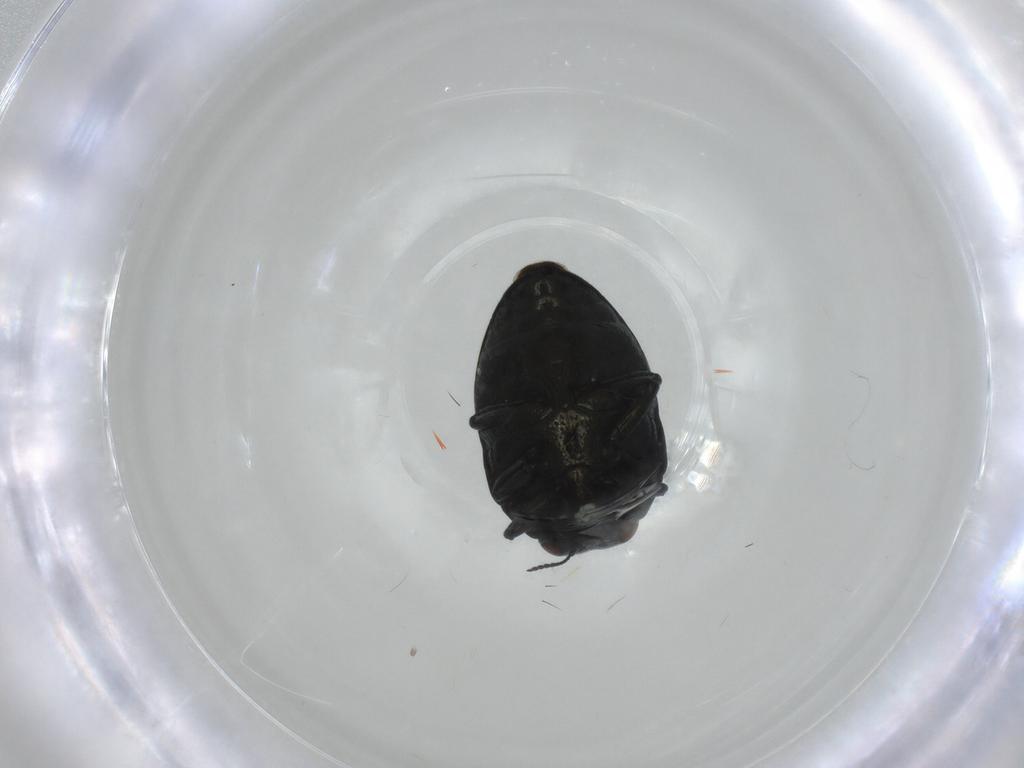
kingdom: Animalia
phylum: Arthropoda
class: Insecta
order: Coleoptera
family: Buprestidae
